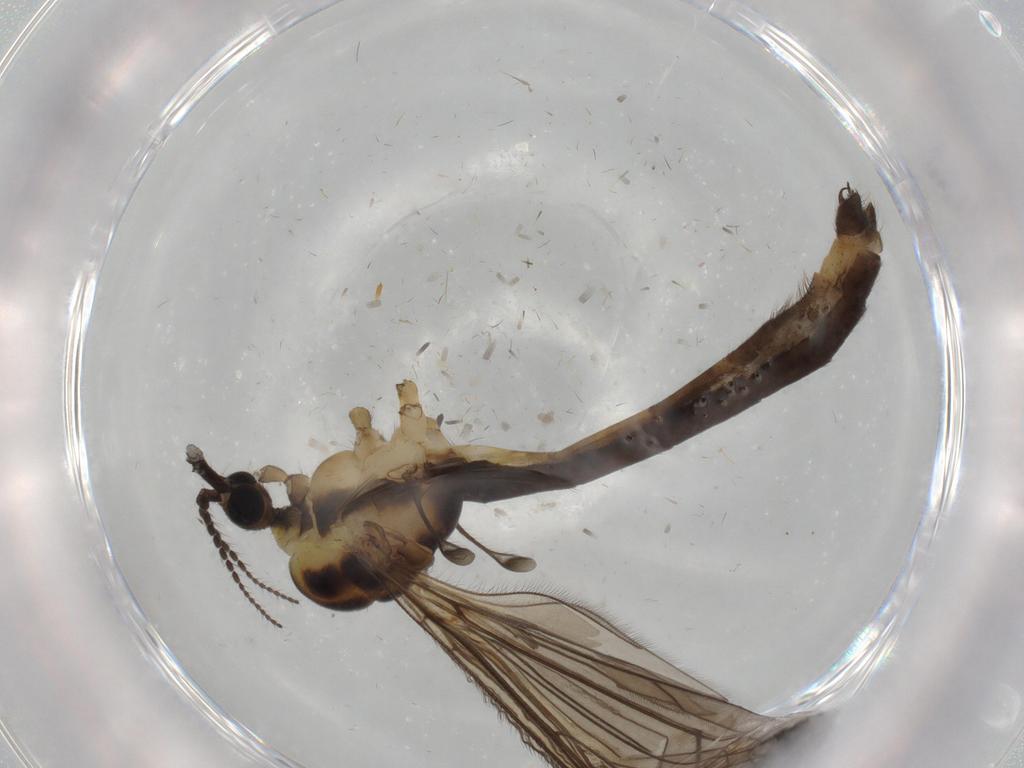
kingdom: Animalia
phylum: Arthropoda
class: Insecta
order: Diptera
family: Limoniidae
